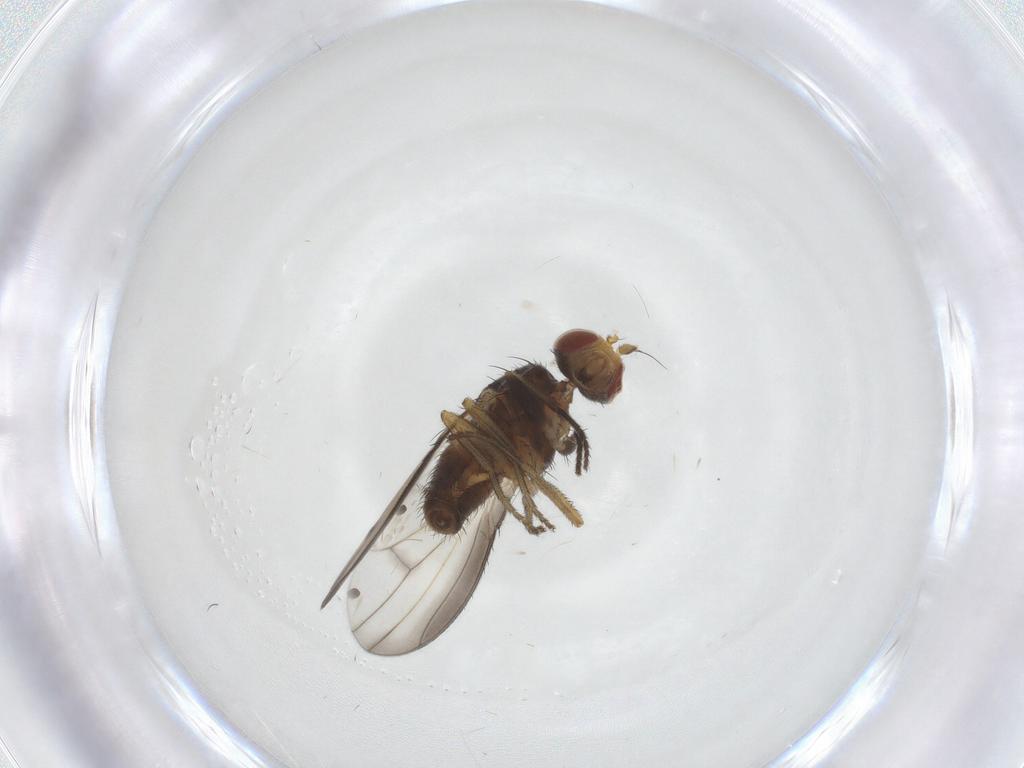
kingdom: Animalia
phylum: Arthropoda
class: Insecta
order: Diptera
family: Heleomyzidae
